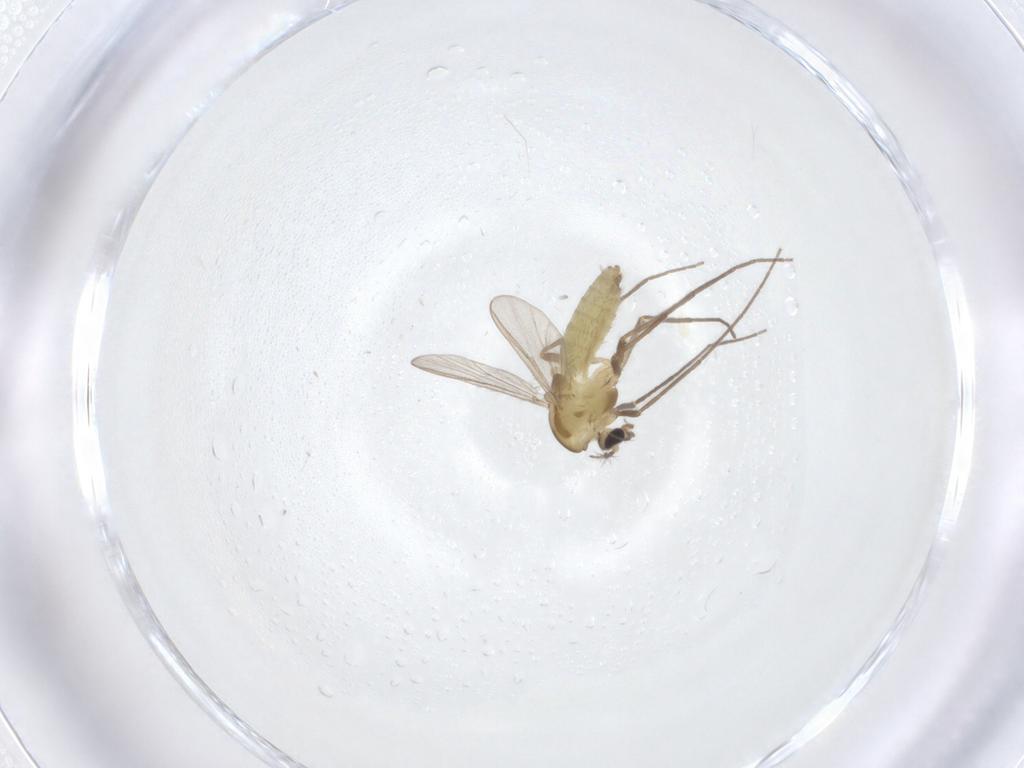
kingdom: Animalia
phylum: Arthropoda
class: Insecta
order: Diptera
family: Chironomidae
